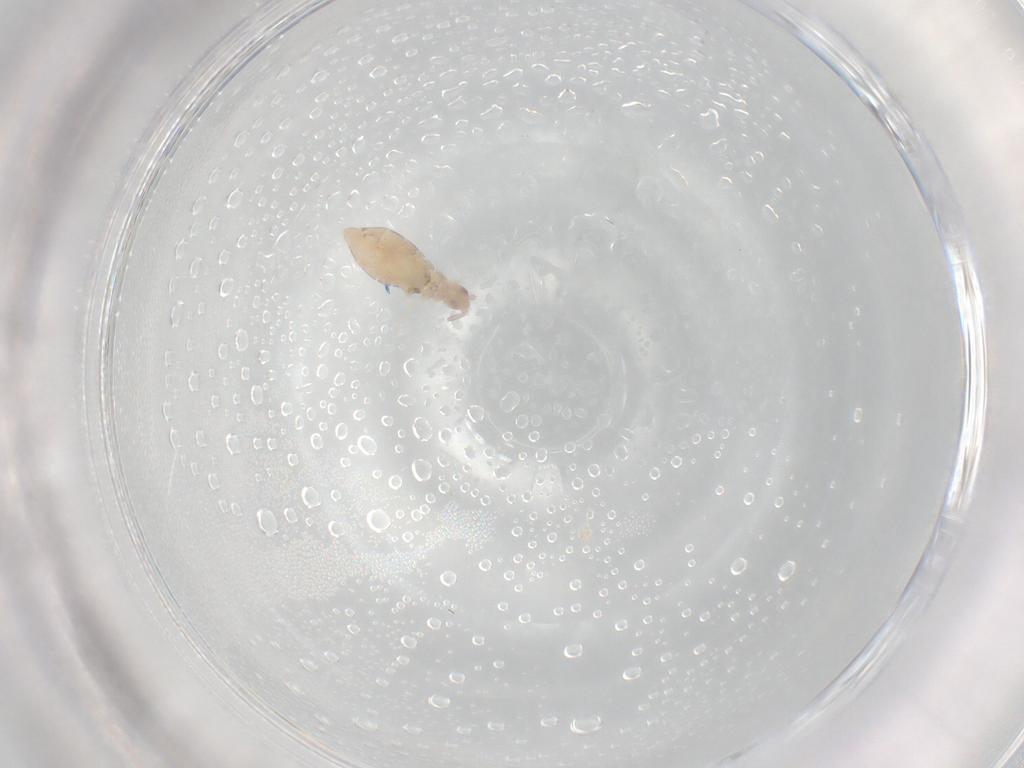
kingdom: Animalia
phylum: Arthropoda
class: Collembola
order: Entomobryomorpha
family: Entomobryidae
